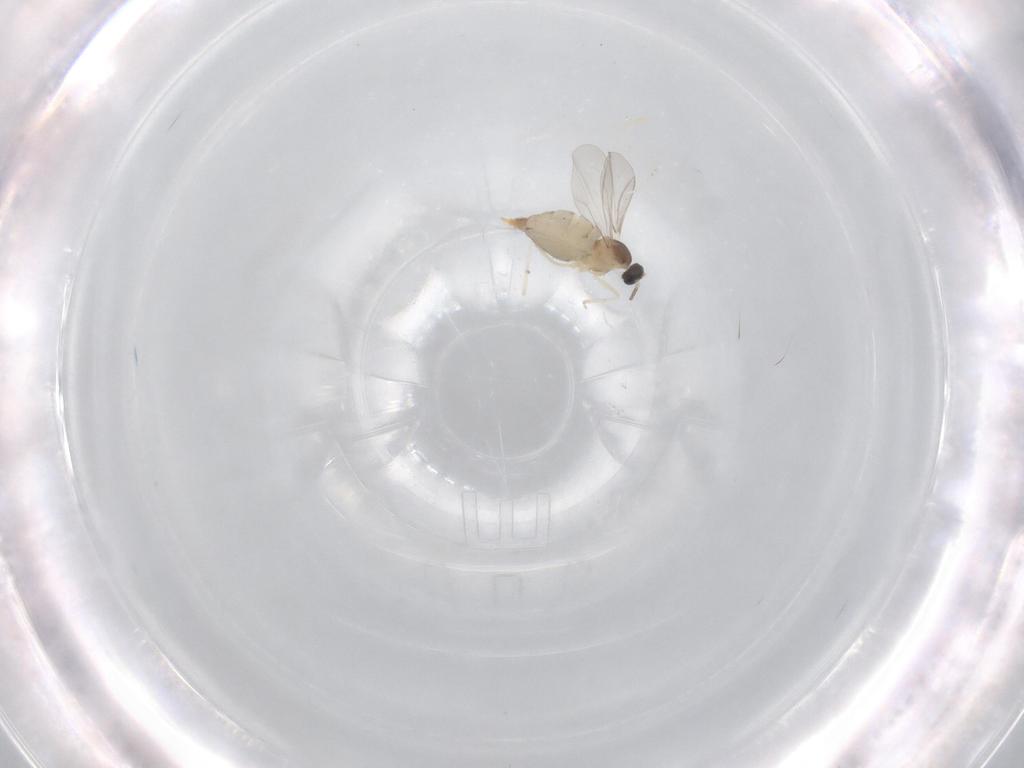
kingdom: Animalia
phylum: Arthropoda
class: Insecta
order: Diptera
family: Cecidomyiidae
